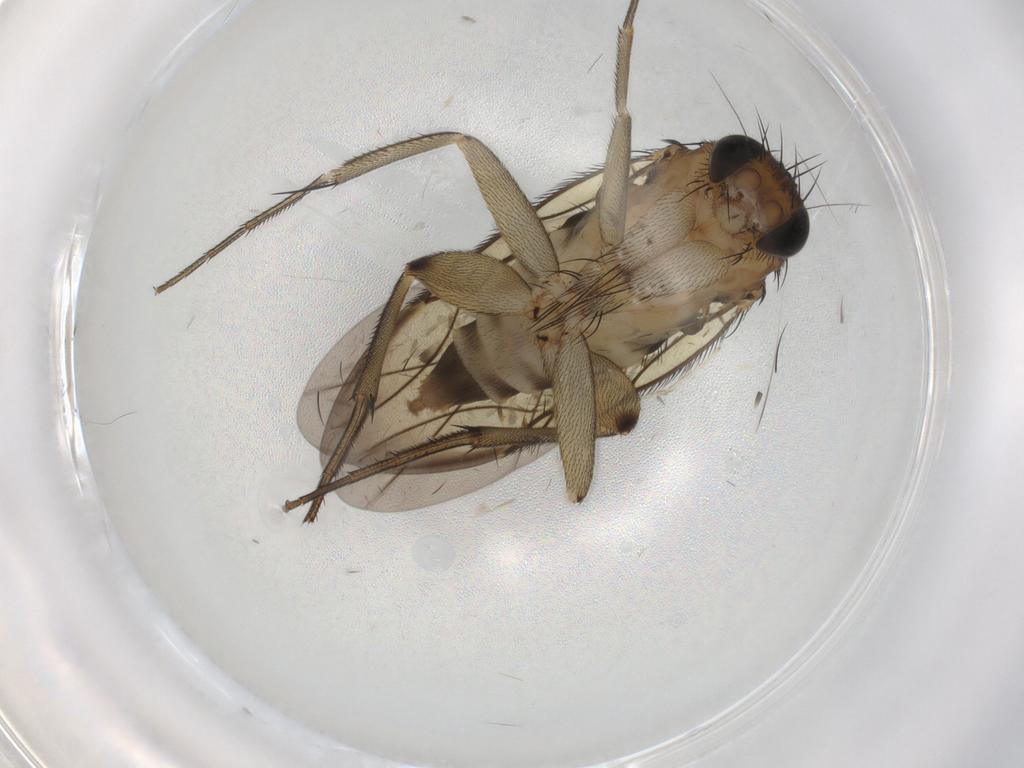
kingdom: Animalia
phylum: Arthropoda
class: Insecta
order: Diptera
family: Phoridae
